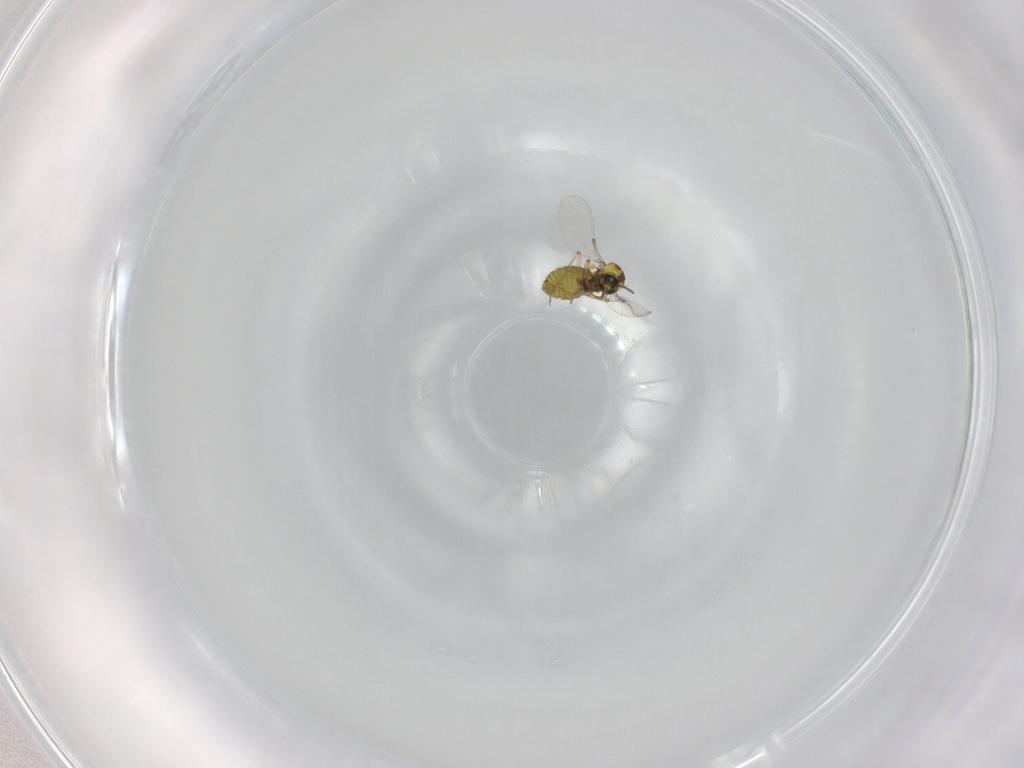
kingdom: Animalia
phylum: Arthropoda
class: Insecta
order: Diptera
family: Ceratopogonidae
